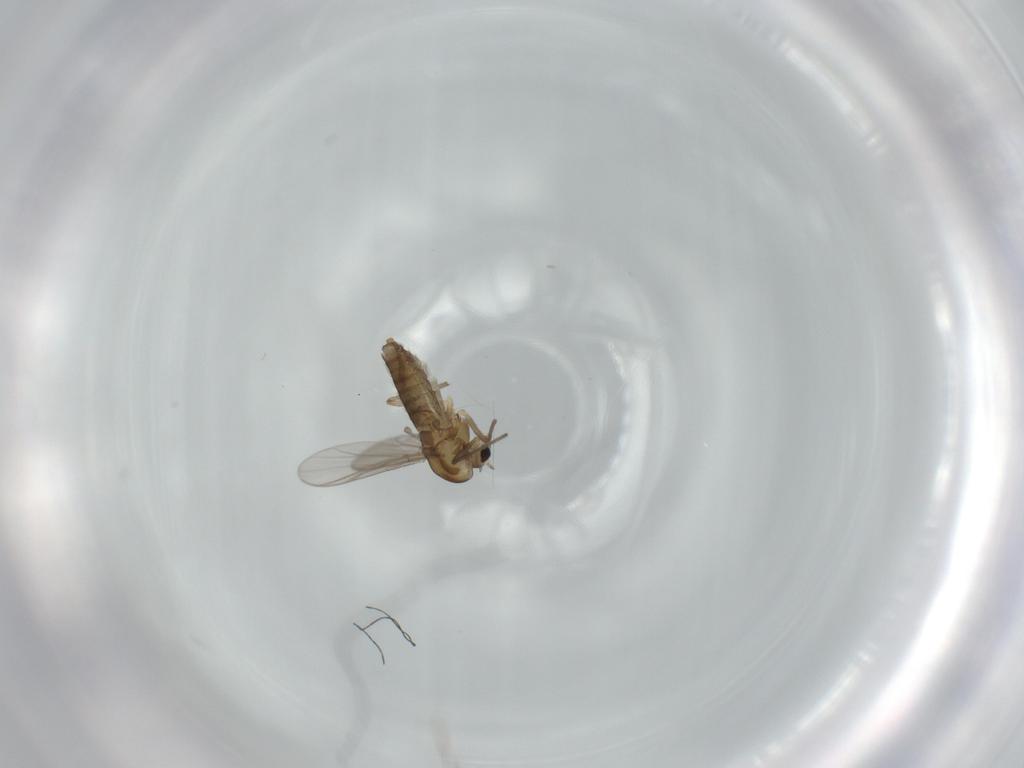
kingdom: Animalia
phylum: Arthropoda
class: Insecta
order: Diptera
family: Chironomidae
